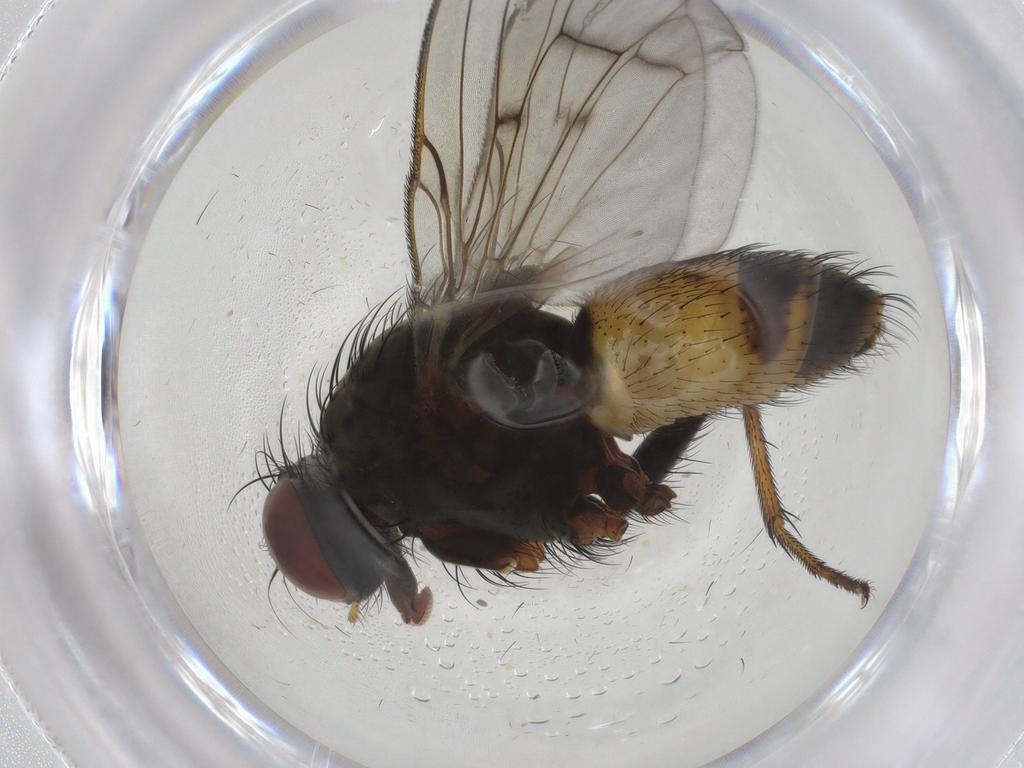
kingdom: Animalia
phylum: Arthropoda
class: Insecta
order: Diptera
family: Muscidae
